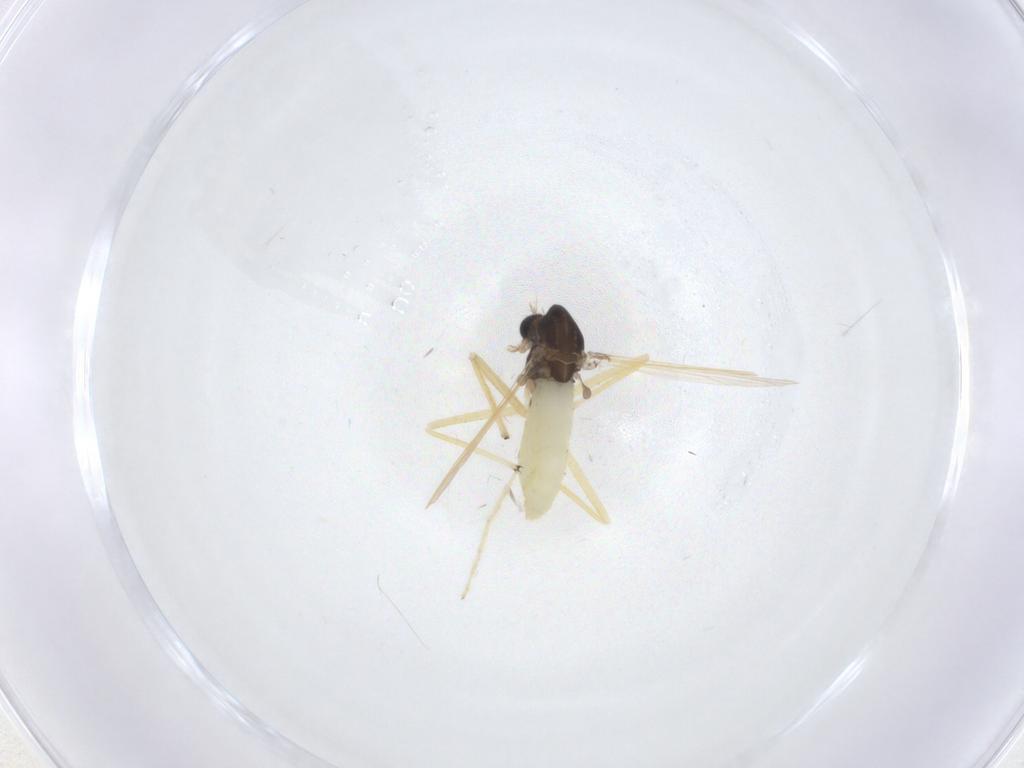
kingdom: Animalia
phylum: Arthropoda
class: Insecta
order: Diptera
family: Chironomidae
